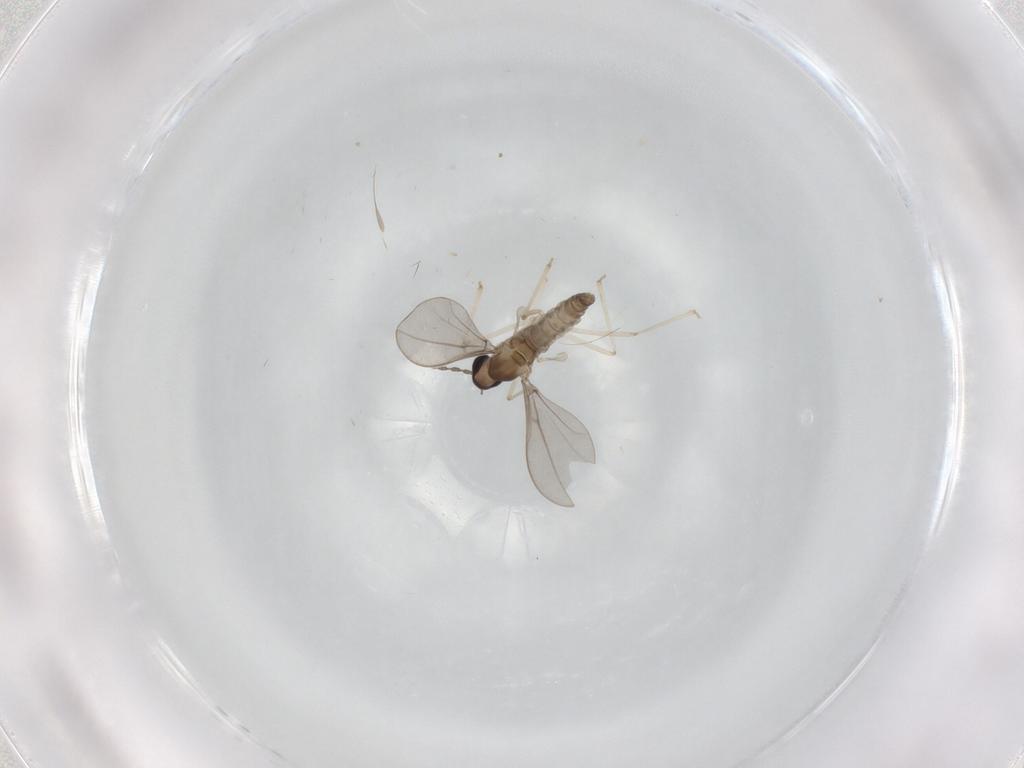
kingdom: Animalia
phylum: Arthropoda
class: Insecta
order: Diptera
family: Cecidomyiidae
